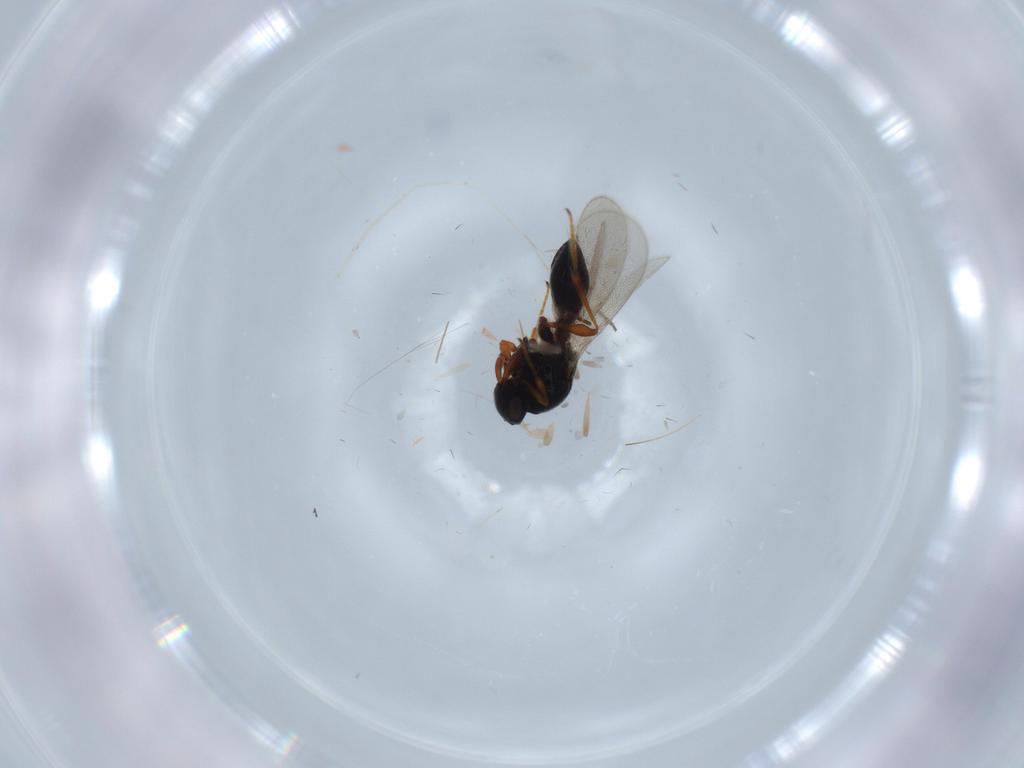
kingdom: Animalia
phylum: Arthropoda
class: Insecta
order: Hymenoptera
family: Platygastridae
